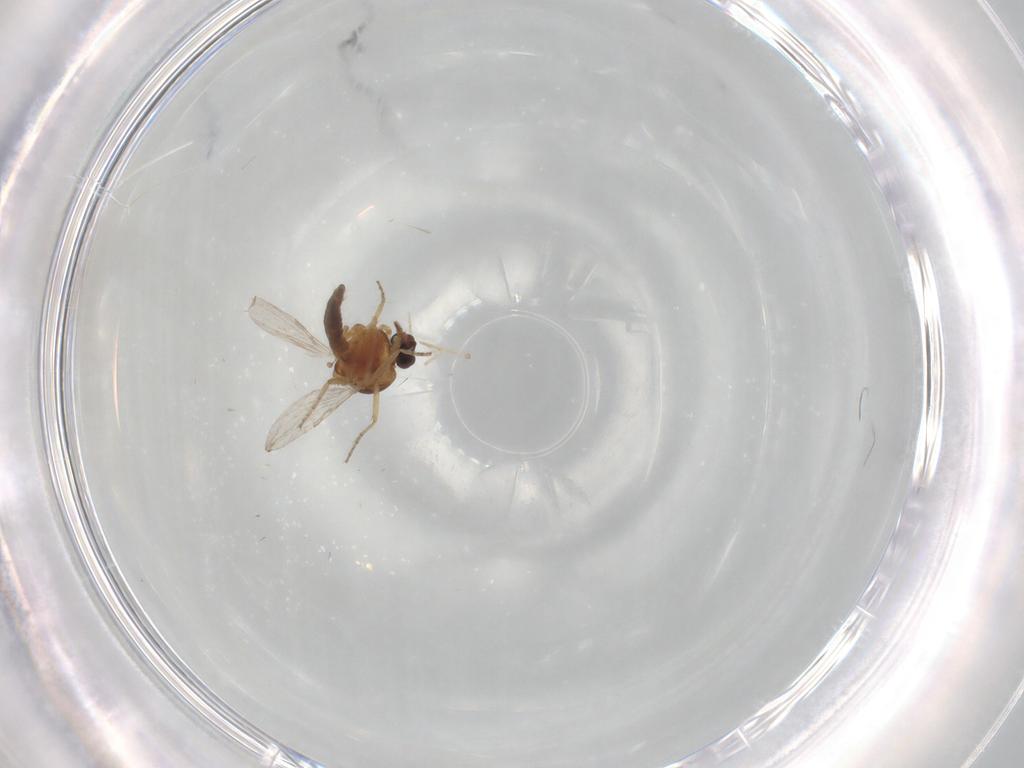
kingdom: Animalia
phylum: Arthropoda
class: Insecta
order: Diptera
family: Ceratopogonidae
